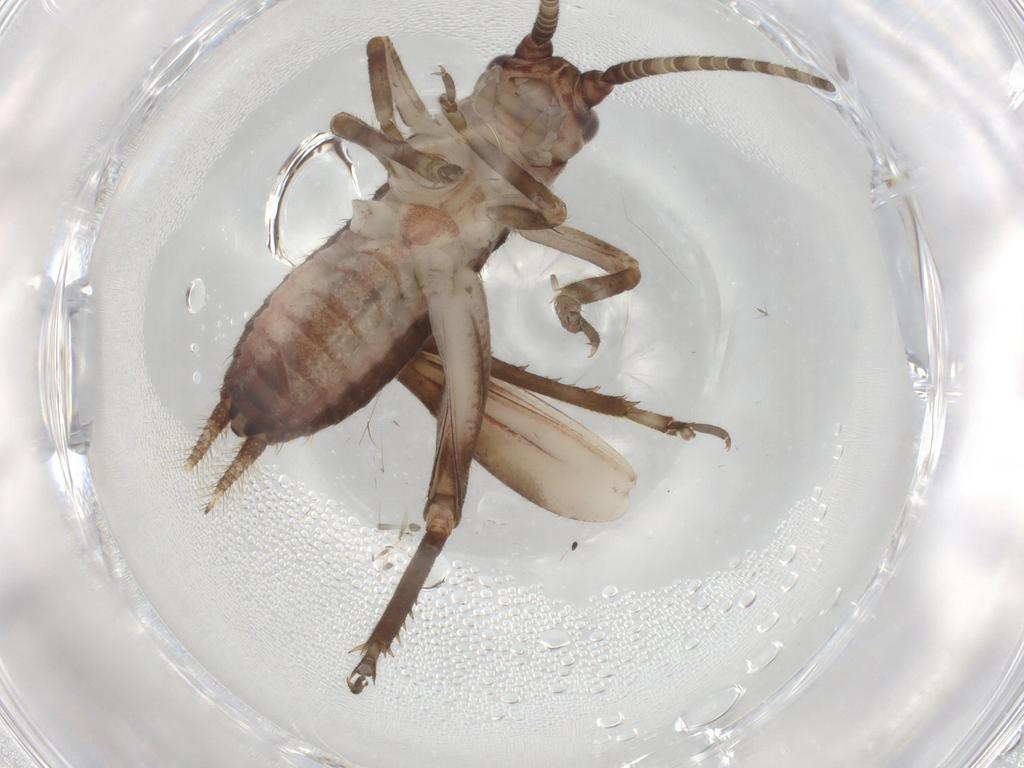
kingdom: Animalia
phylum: Arthropoda
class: Insecta
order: Orthoptera
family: Gryllidae
